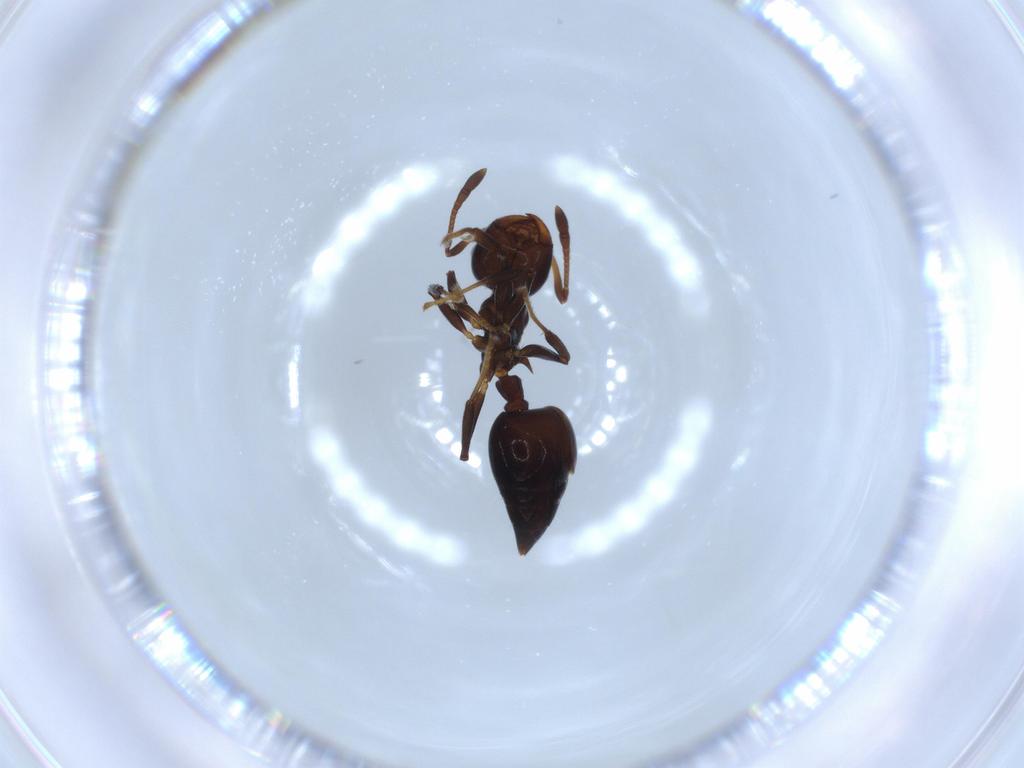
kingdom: Animalia
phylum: Arthropoda
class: Insecta
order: Hymenoptera
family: Formicidae
